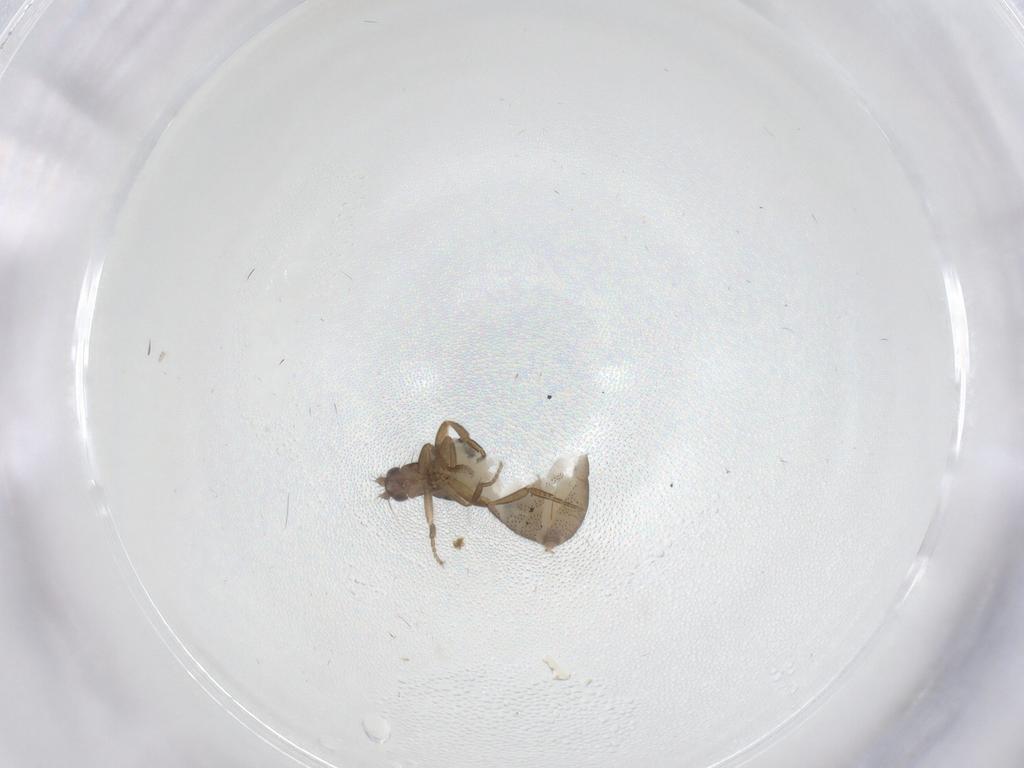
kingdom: Animalia
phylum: Arthropoda
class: Insecta
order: Diptera
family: Phoridae
